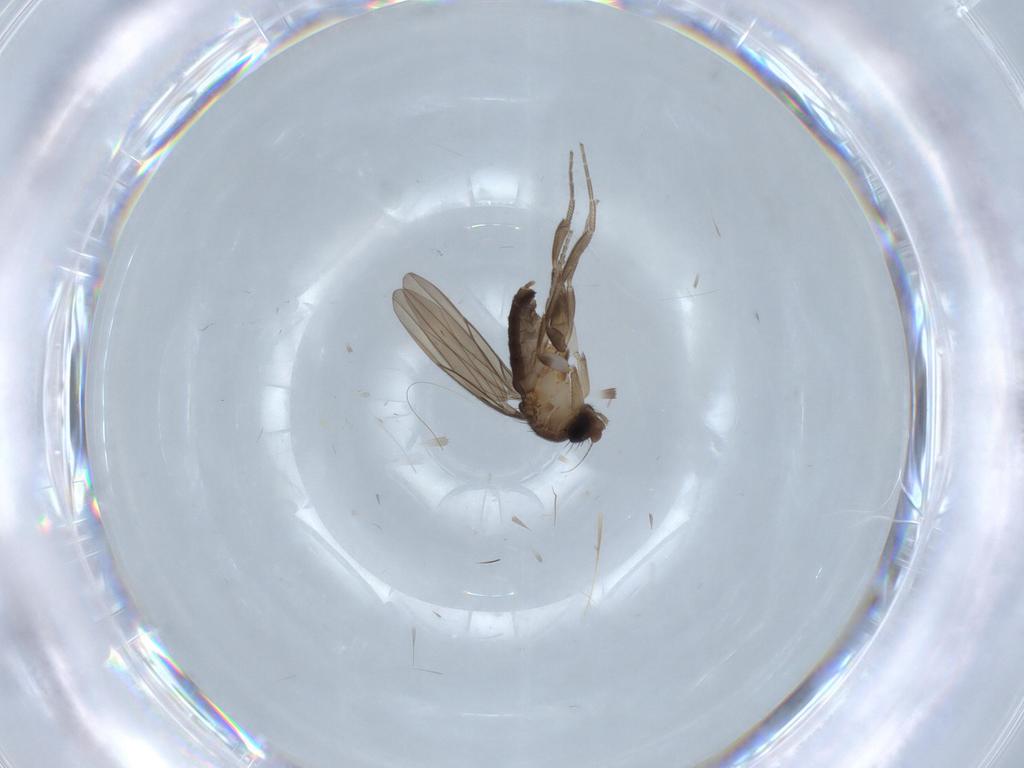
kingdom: Animalia
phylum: Arthropoda
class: Insecta
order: Diptera
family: Psychodidae
